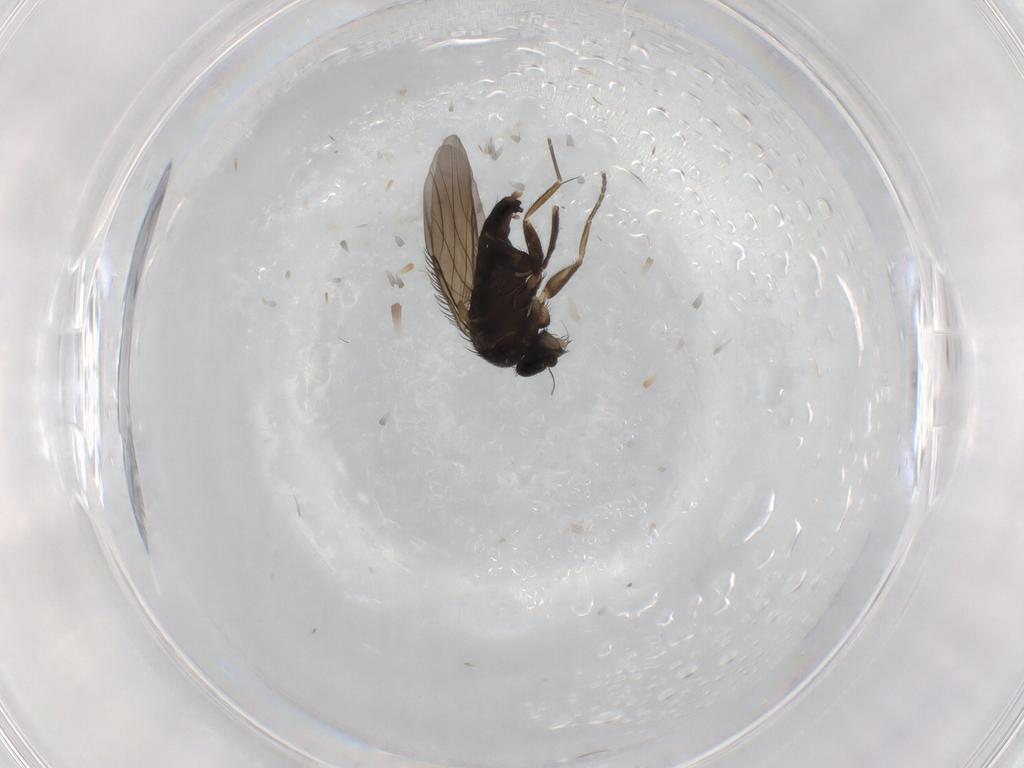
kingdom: Animalia
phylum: Arthropoda
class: Insecta
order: Diptera
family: Phoridae
